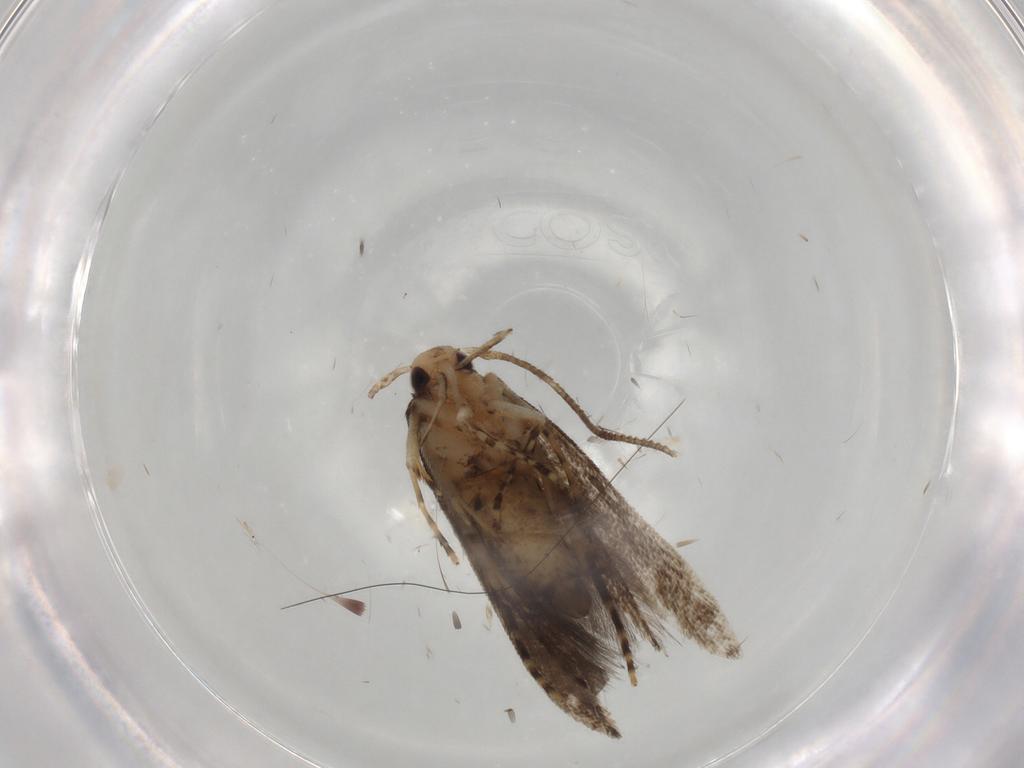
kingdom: Animalia
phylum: Arthropoda
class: Insecta
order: Lepidoptera
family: Cosmopterigidae
